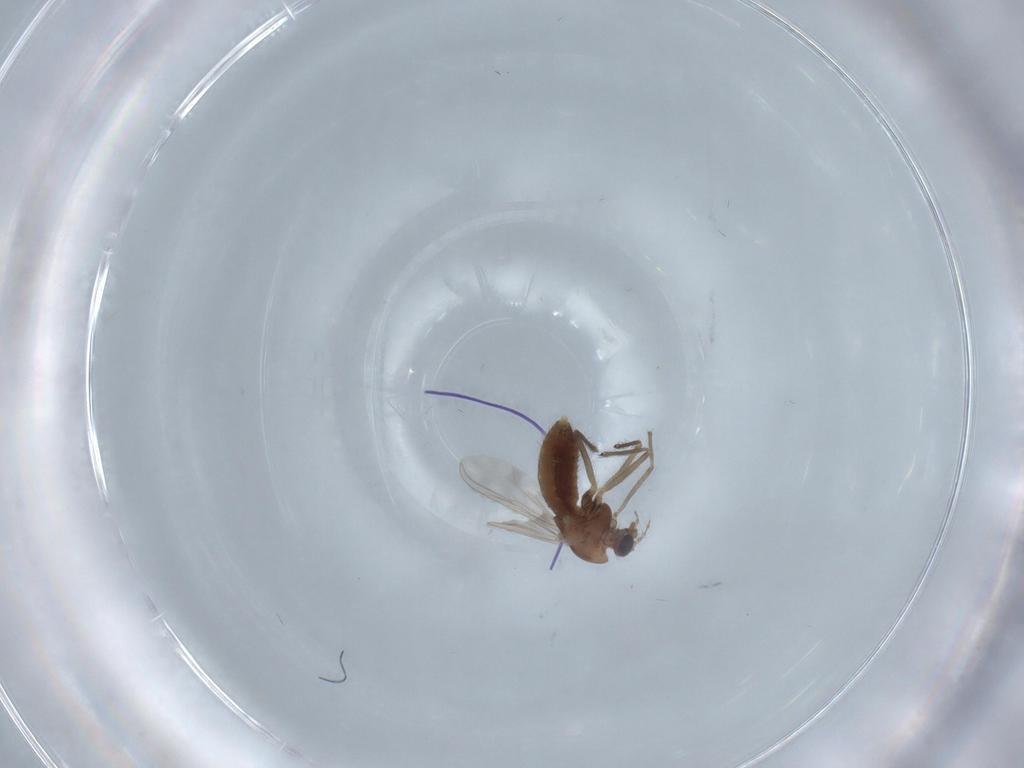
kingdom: Animalia
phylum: Arthropoda
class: Insecta
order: Diptera
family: Chironomidae
